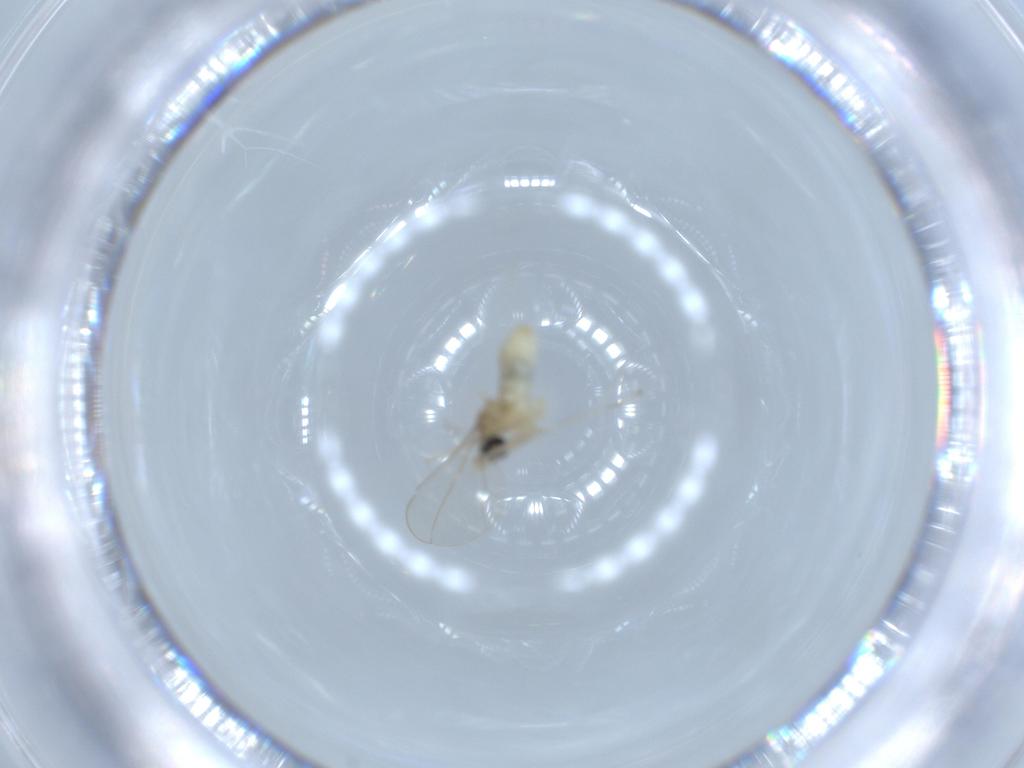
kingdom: Animalia
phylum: Arthropoda
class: Insecta
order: Diptera
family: Cecidomyiidae
